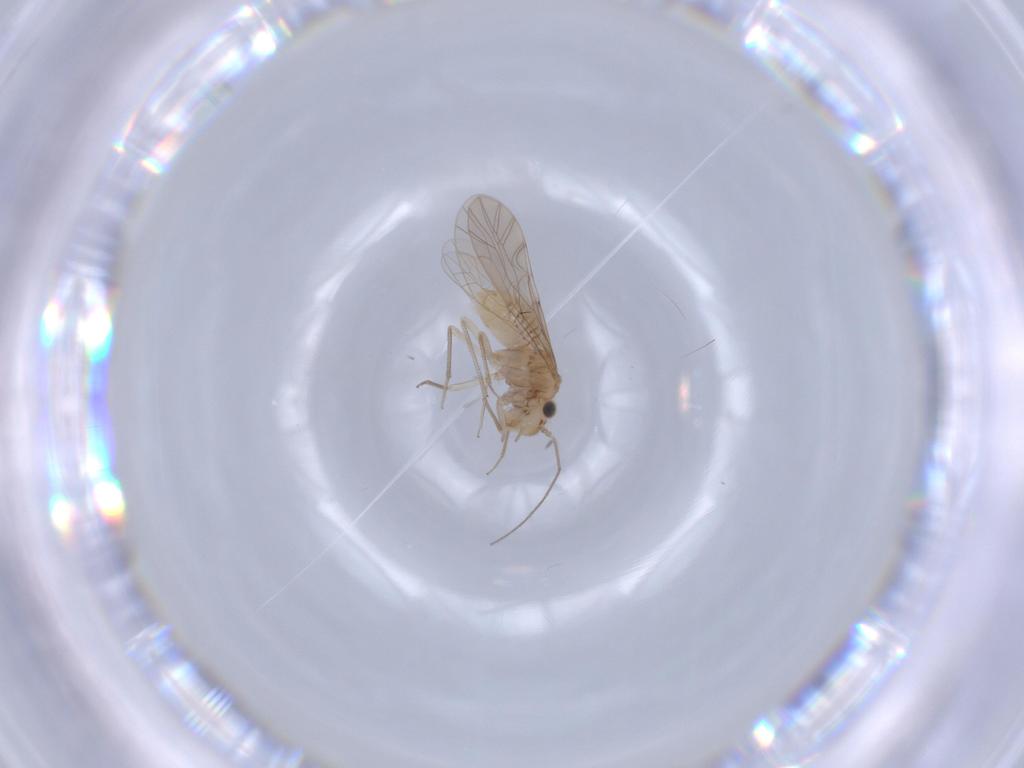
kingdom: Animalia
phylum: Arthropoda
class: Insecta
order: Psocodea
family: Lachesillidae
